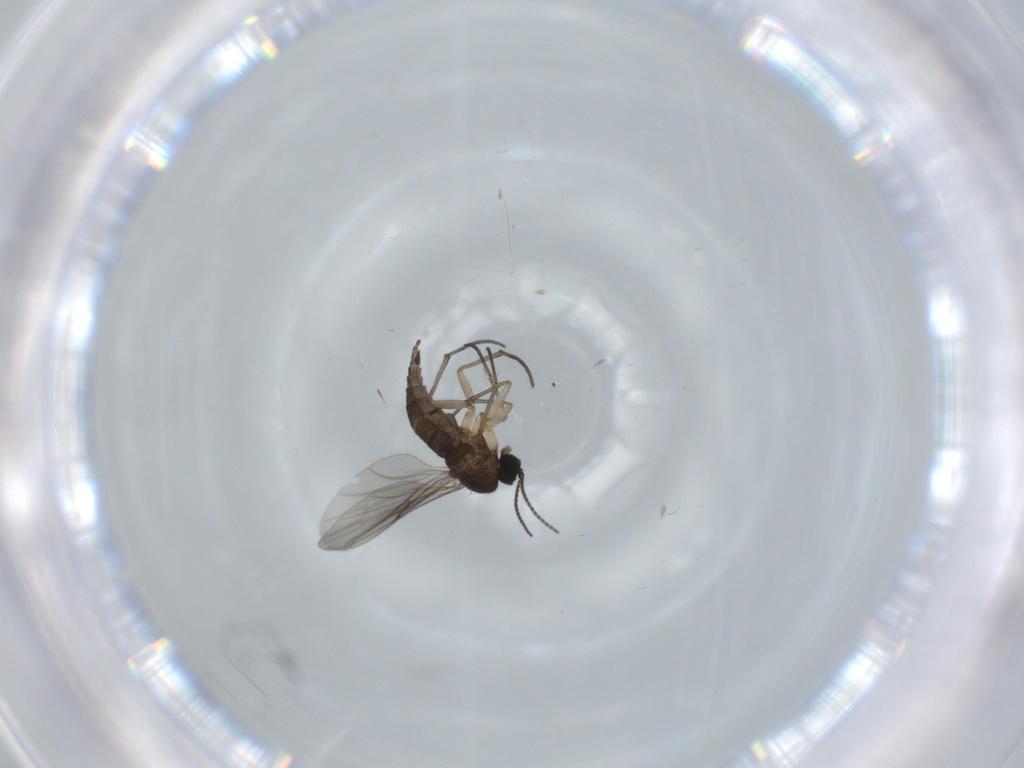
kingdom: Animalia
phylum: Arthropoda
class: Insecta
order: Diptera
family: Sciaridae
